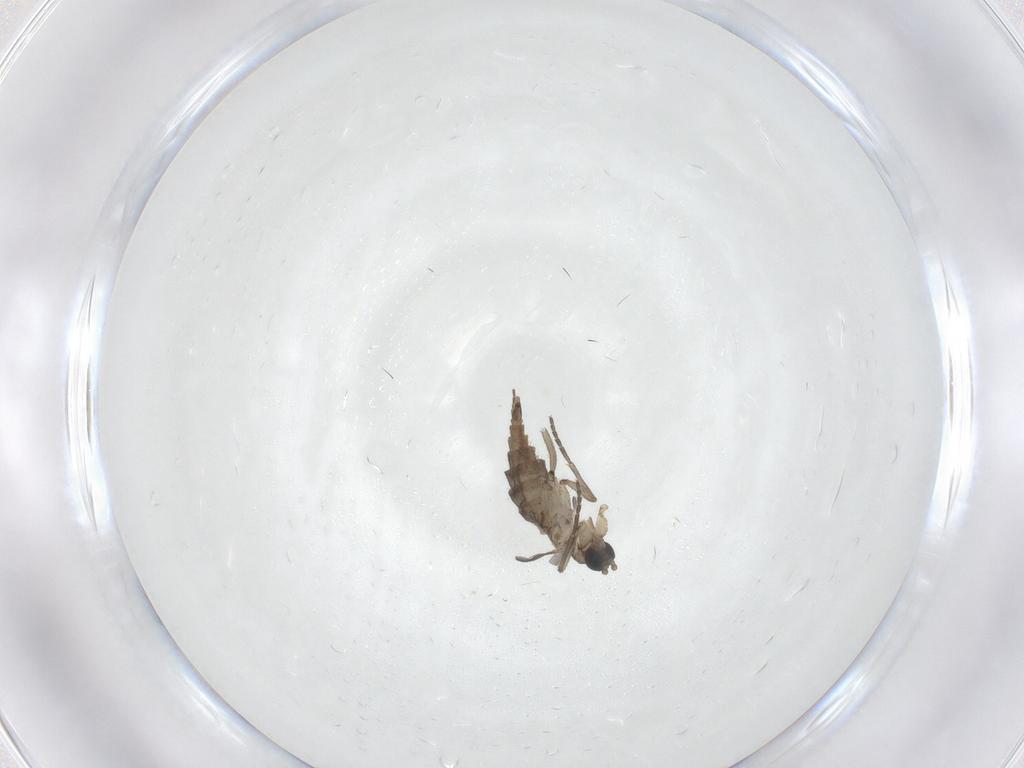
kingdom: Animalia
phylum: Arthropoda
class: Insecta
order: Diptera
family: Sciaridae
